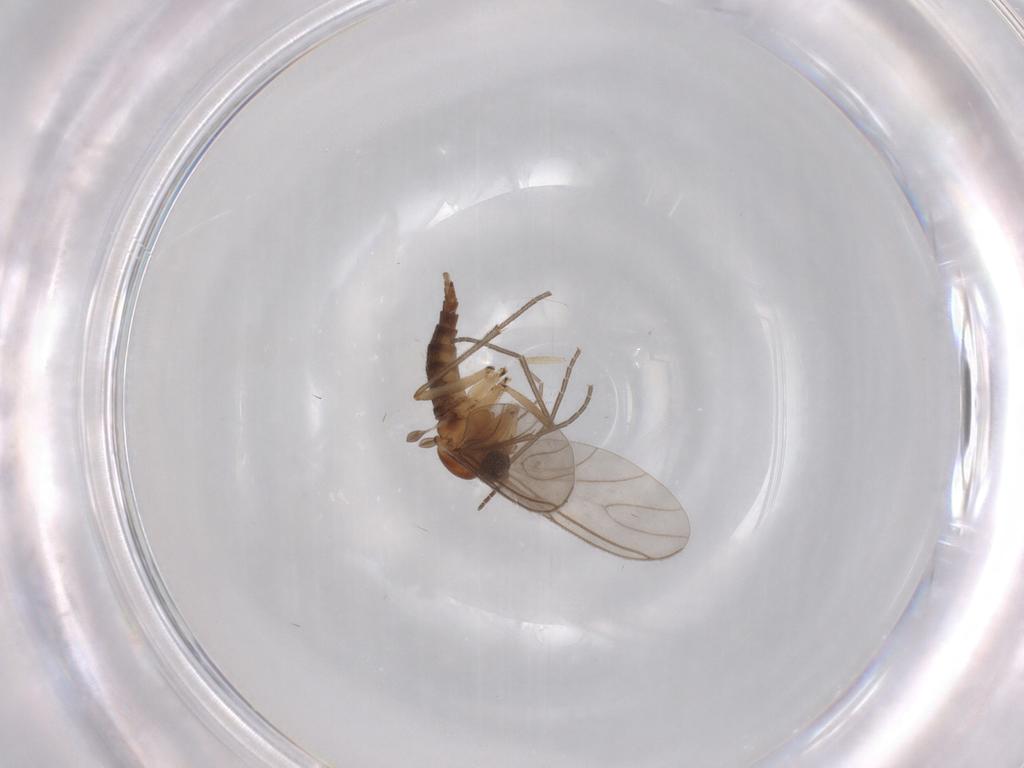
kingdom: Animalia
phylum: Arthropoda
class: Insecta
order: Diptera
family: Sciaridae
